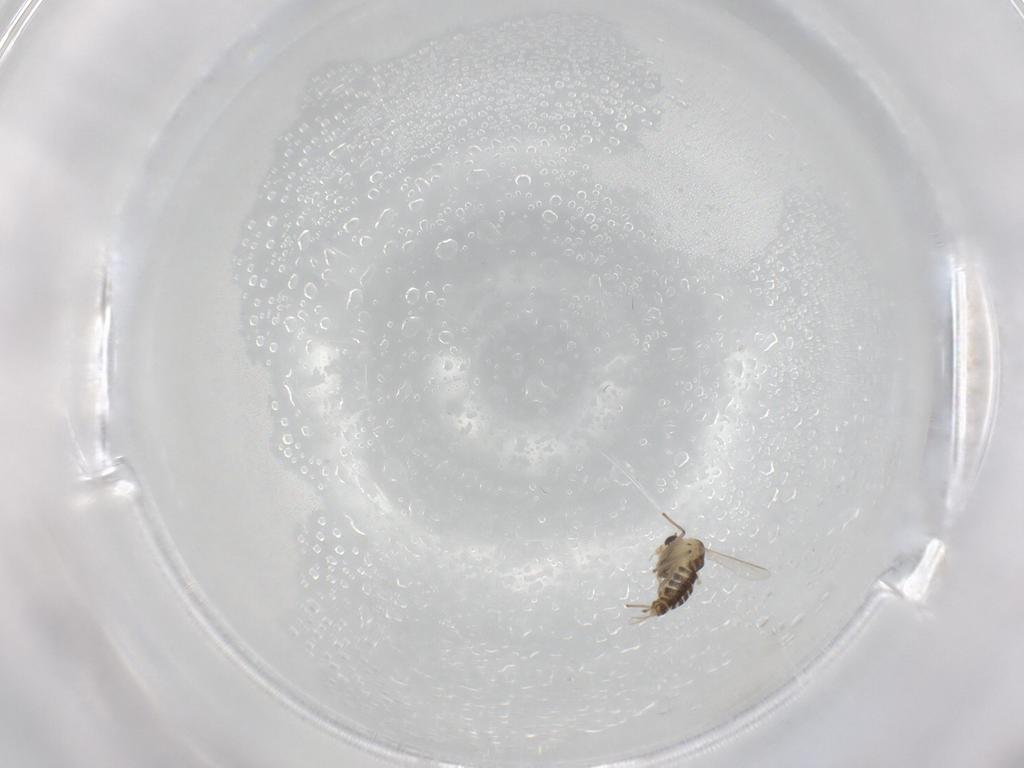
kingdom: Animalia
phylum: Arthropoda
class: Insecta
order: Diptera
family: Chironomidae
